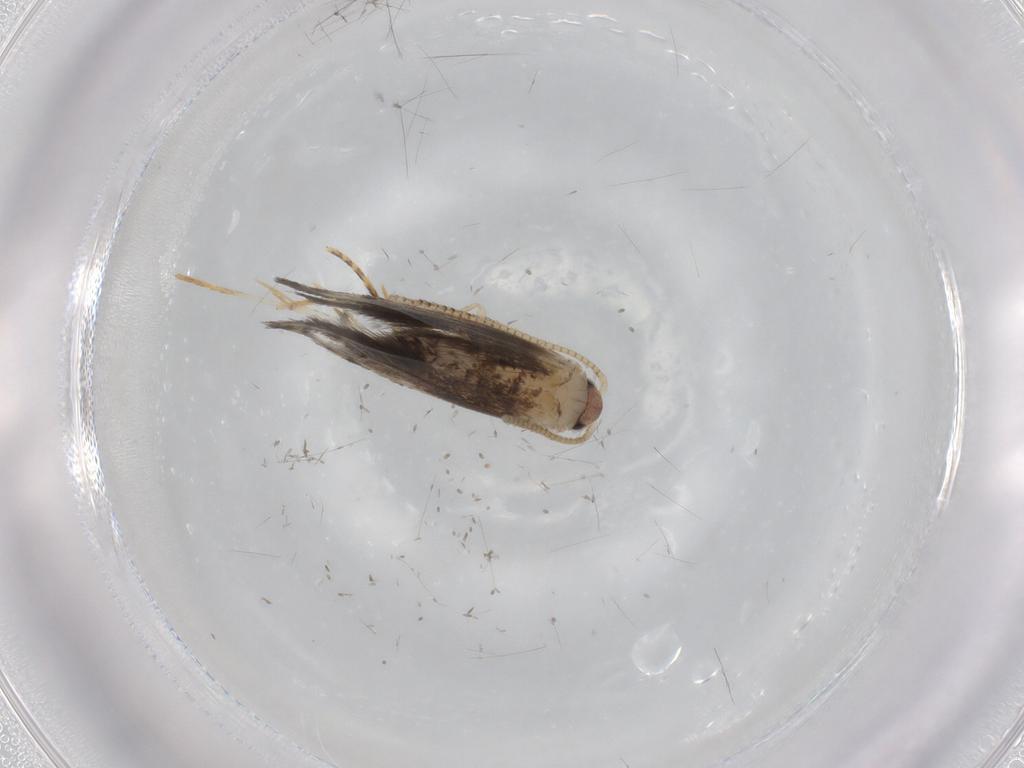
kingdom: Animalia
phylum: Arthropoda
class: Insecta
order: Lepidoptera
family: Tineidae
